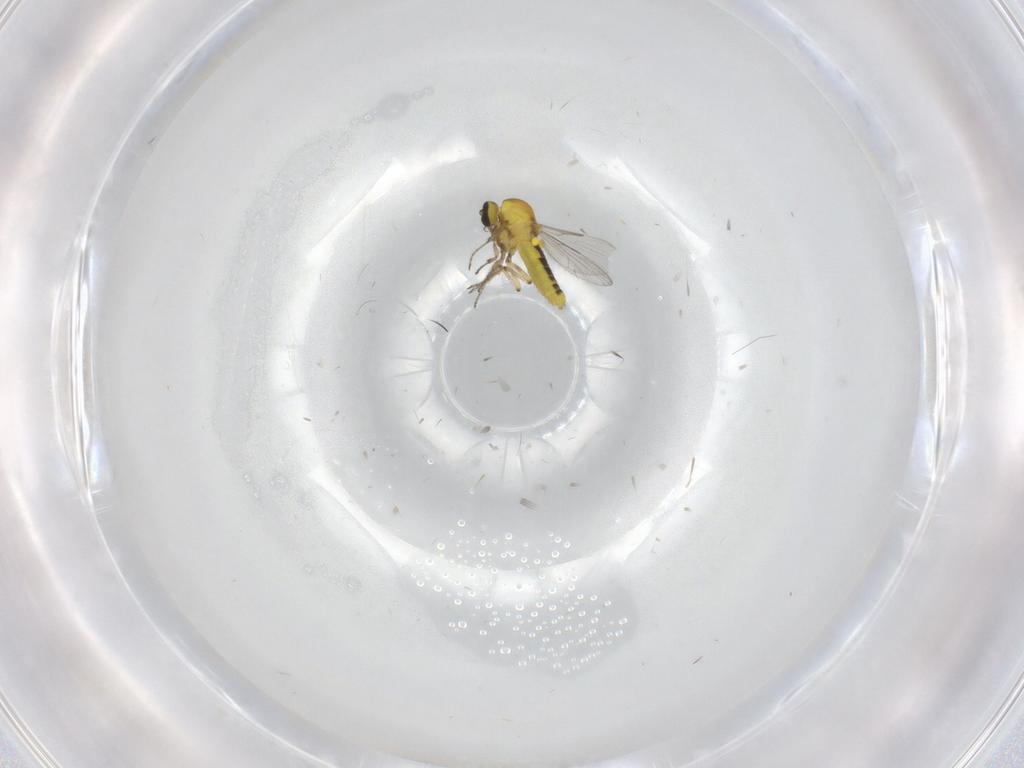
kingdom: Animalia
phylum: Arthropoda
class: Insecta
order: Diptera
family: Ceratopogonidae
